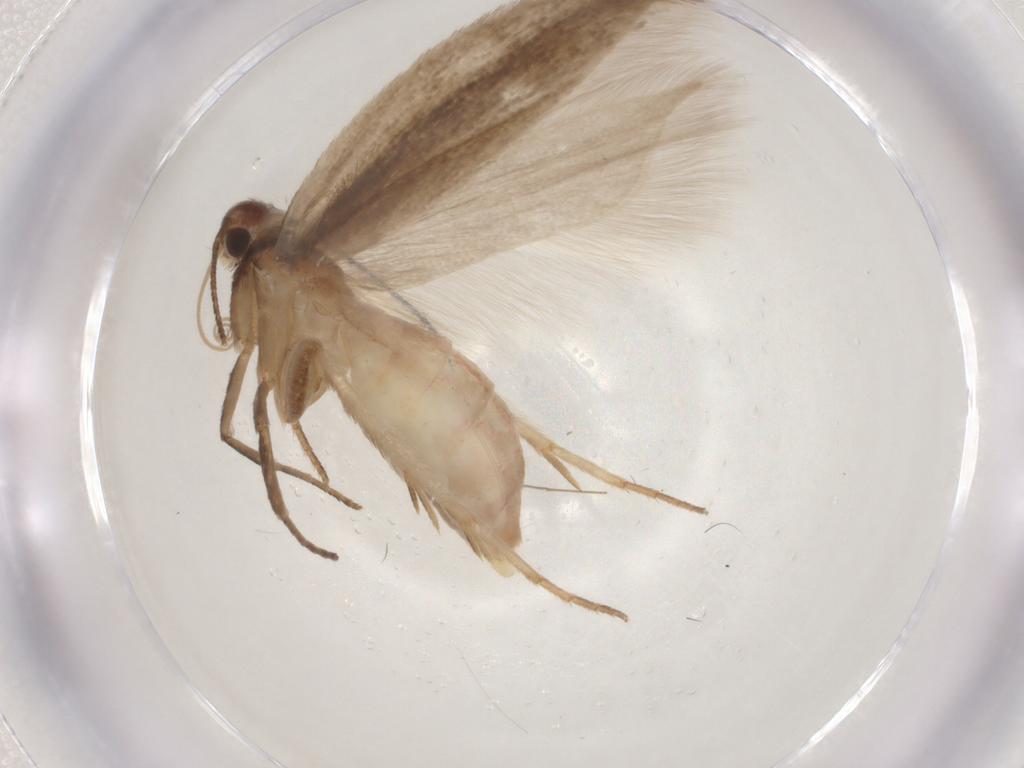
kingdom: Animalia
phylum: Arthropoda
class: Insecta
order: Lepidoptera
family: Gelechiidae
